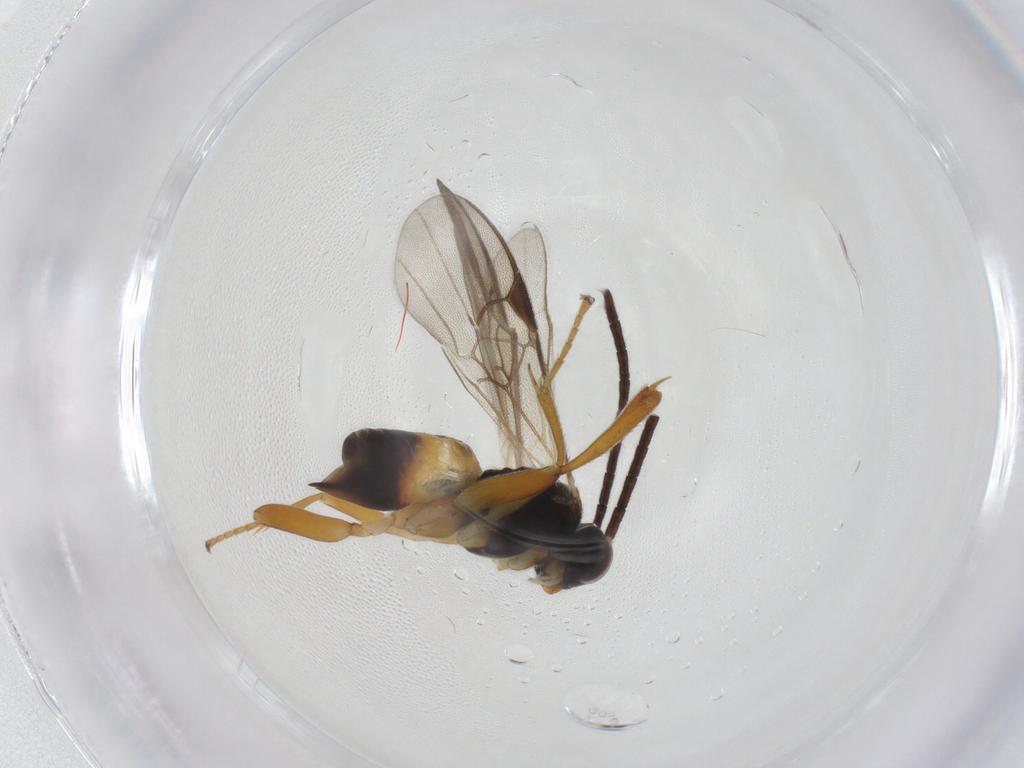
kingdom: Animalia
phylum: Arthropoda
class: Insecta
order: Hymenoptera
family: Braconidae
